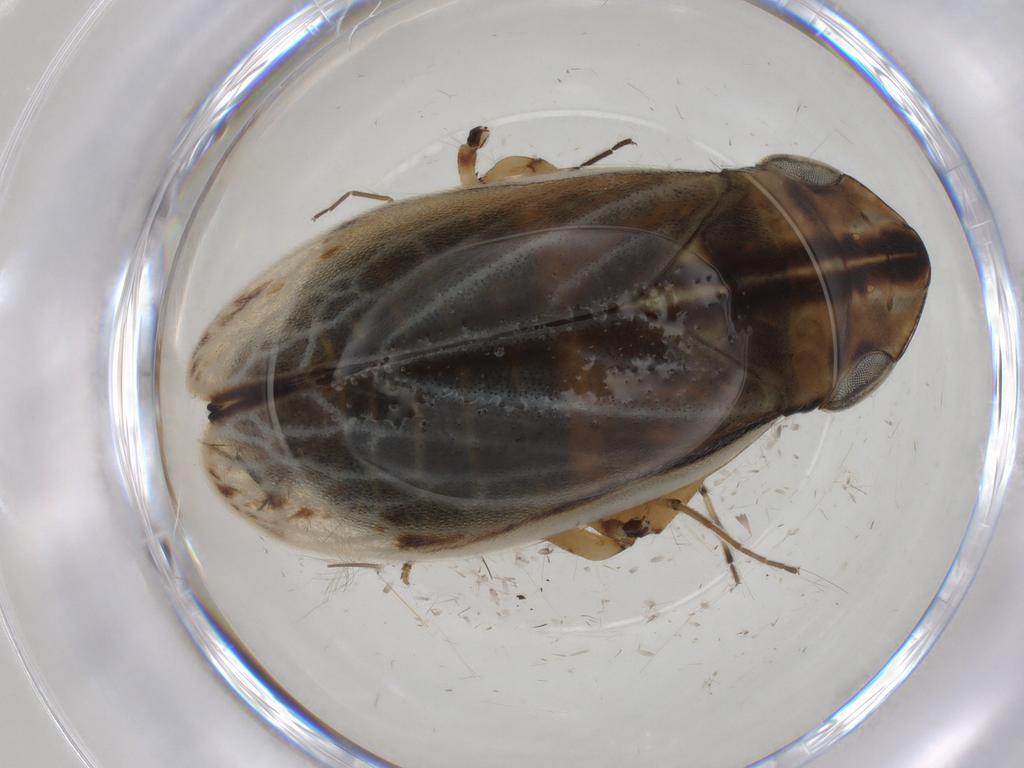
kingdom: Animalia
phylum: Arthropoda
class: Insecta
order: Hemiptera
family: Aphrophoridae
